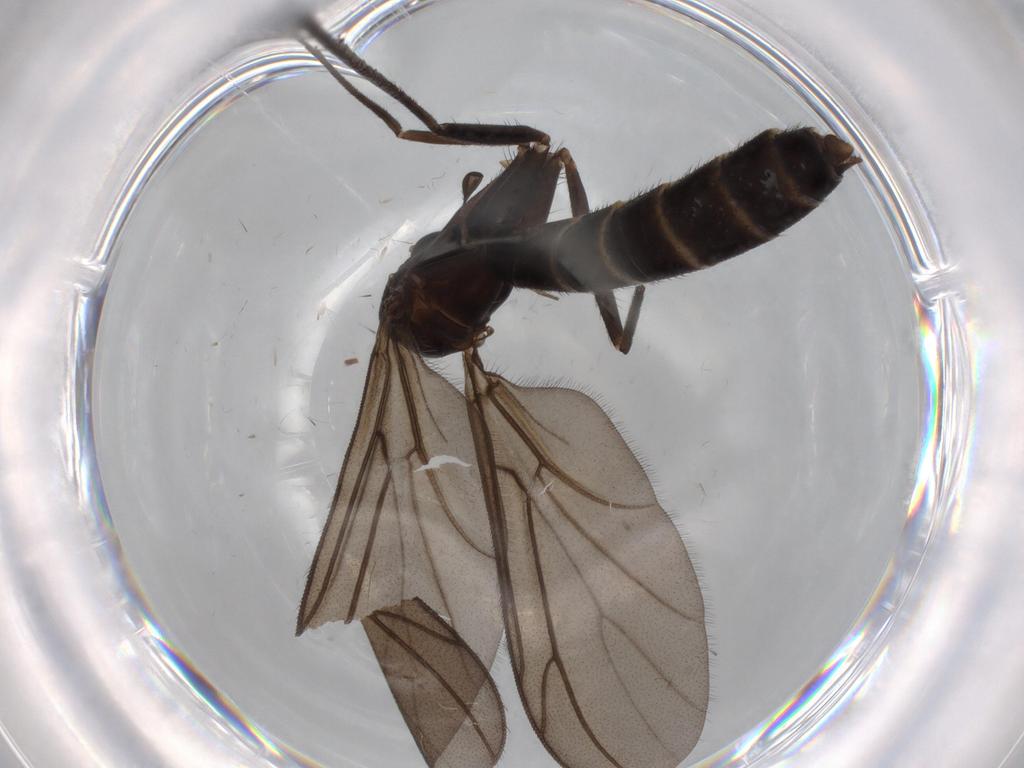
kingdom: Animalia
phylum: Arthropoda
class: Insecta
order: Diptera
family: Ditomyiidae
